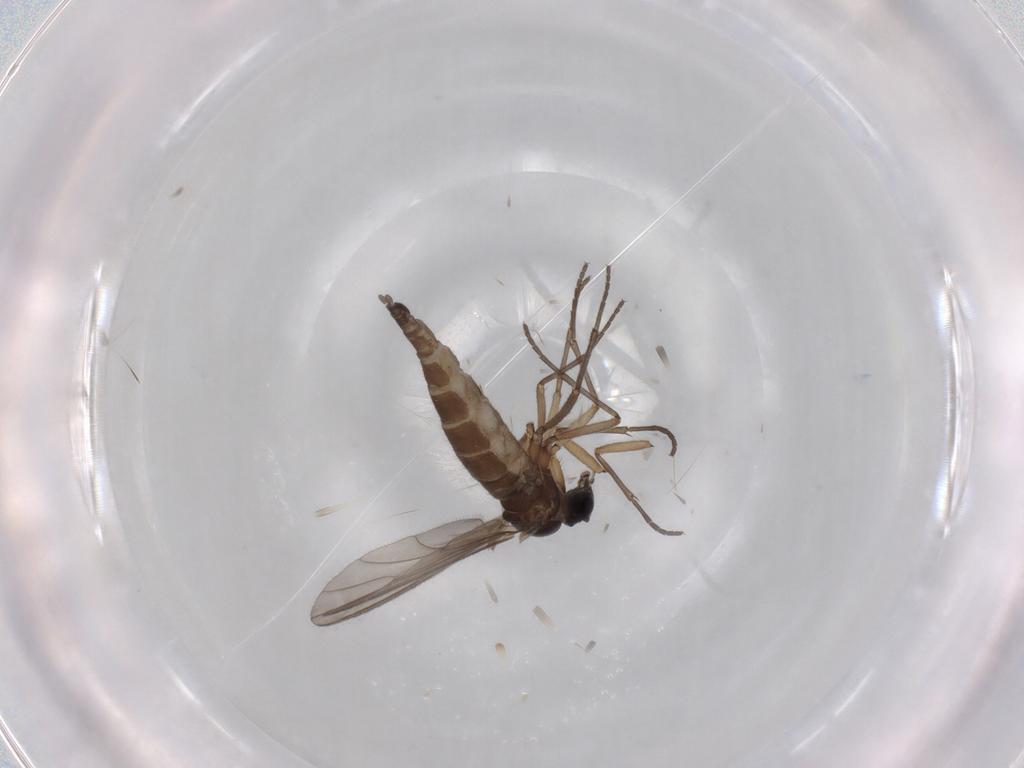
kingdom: Animalia
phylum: Arthropoda
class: Insecta
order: Diptera
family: Sciaridae
